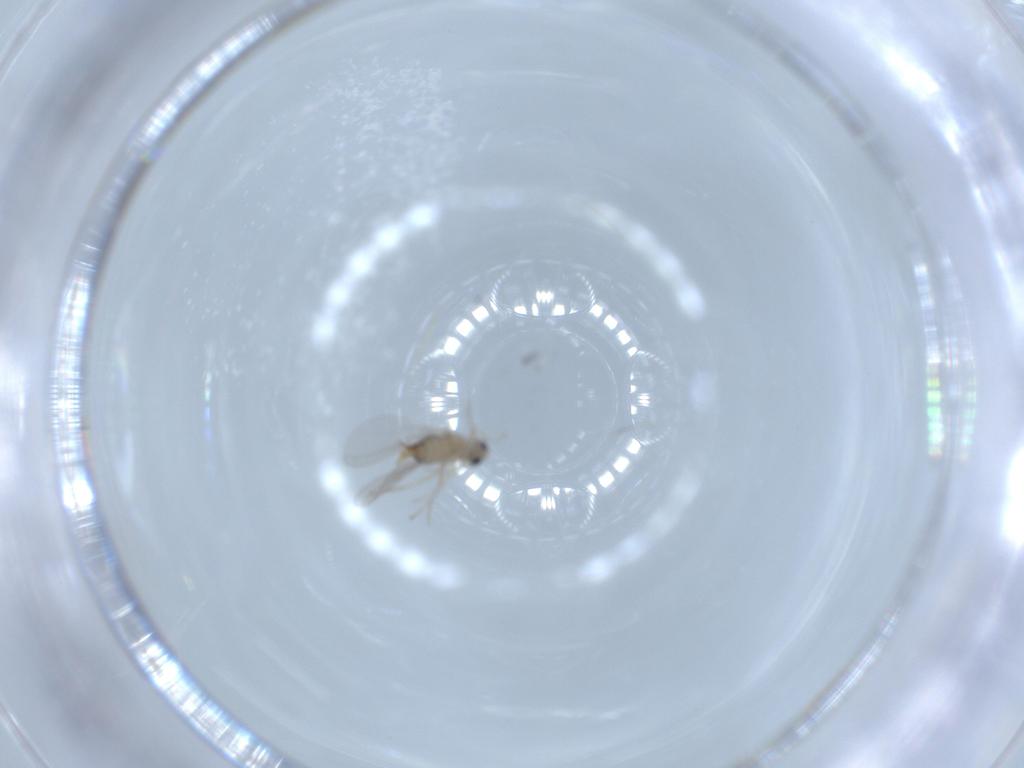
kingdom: Animalia
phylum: Arthropoda
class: Insecta
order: Diptera
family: Cecidomyiidae
